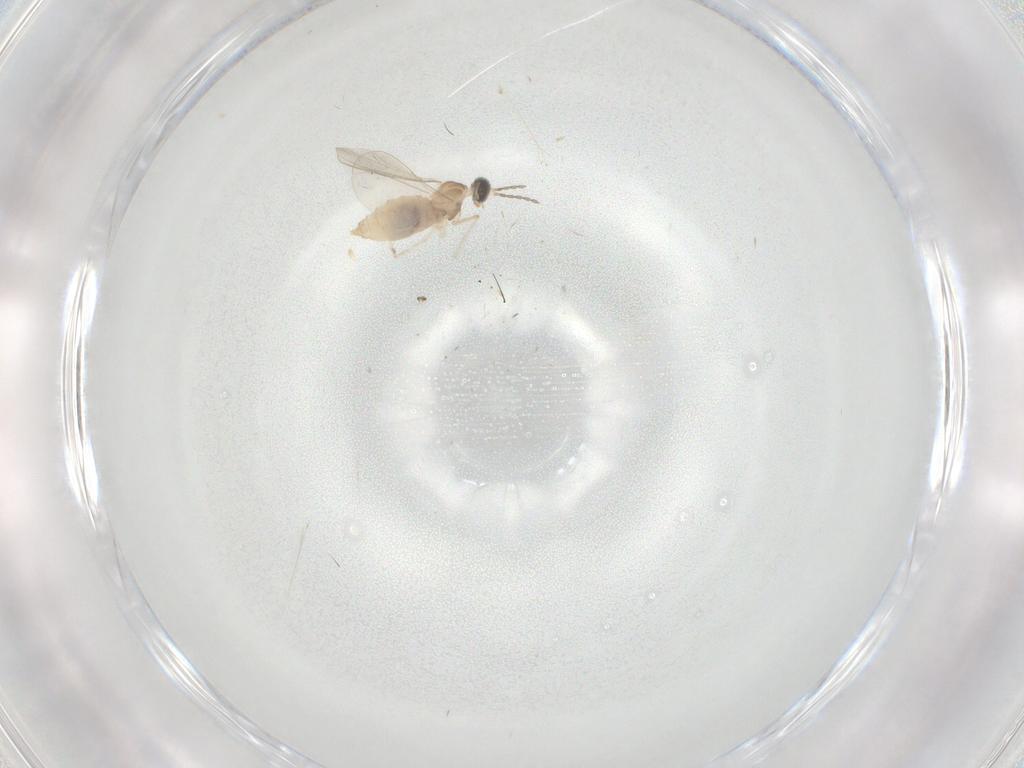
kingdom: Animalia
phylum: Arthropoda
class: Insecta
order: Diptera
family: Cecidomyiidae
